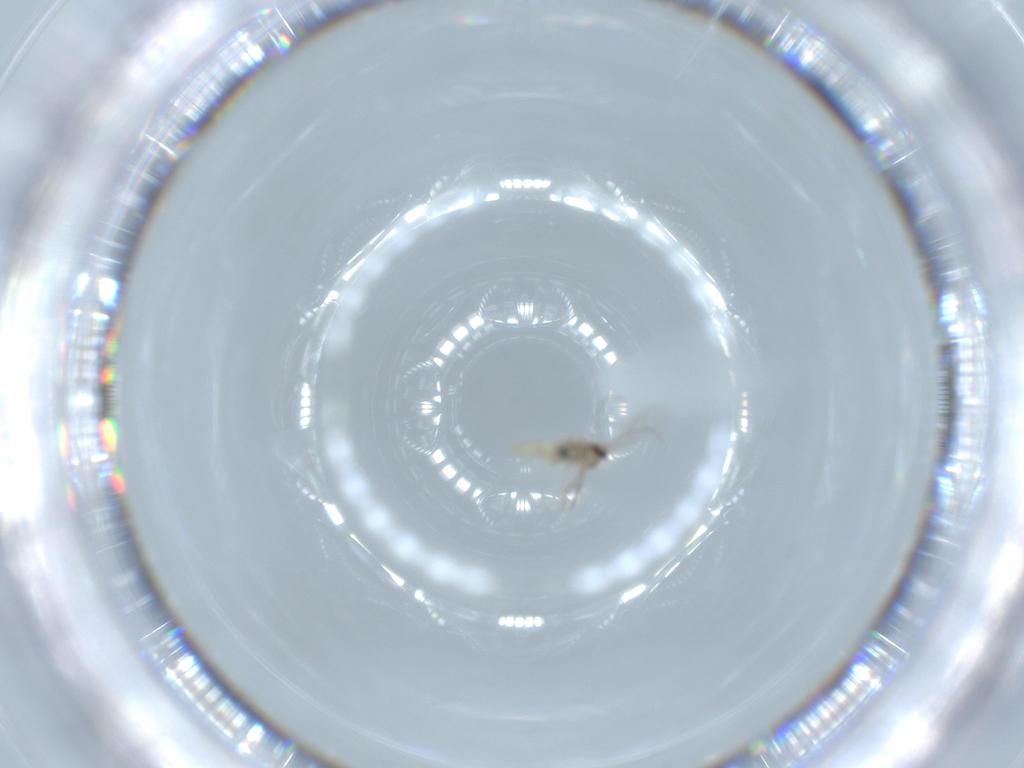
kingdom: Animalia
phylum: Arthropoda
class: Insecta
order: Diptera
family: Cecidomyiidae
